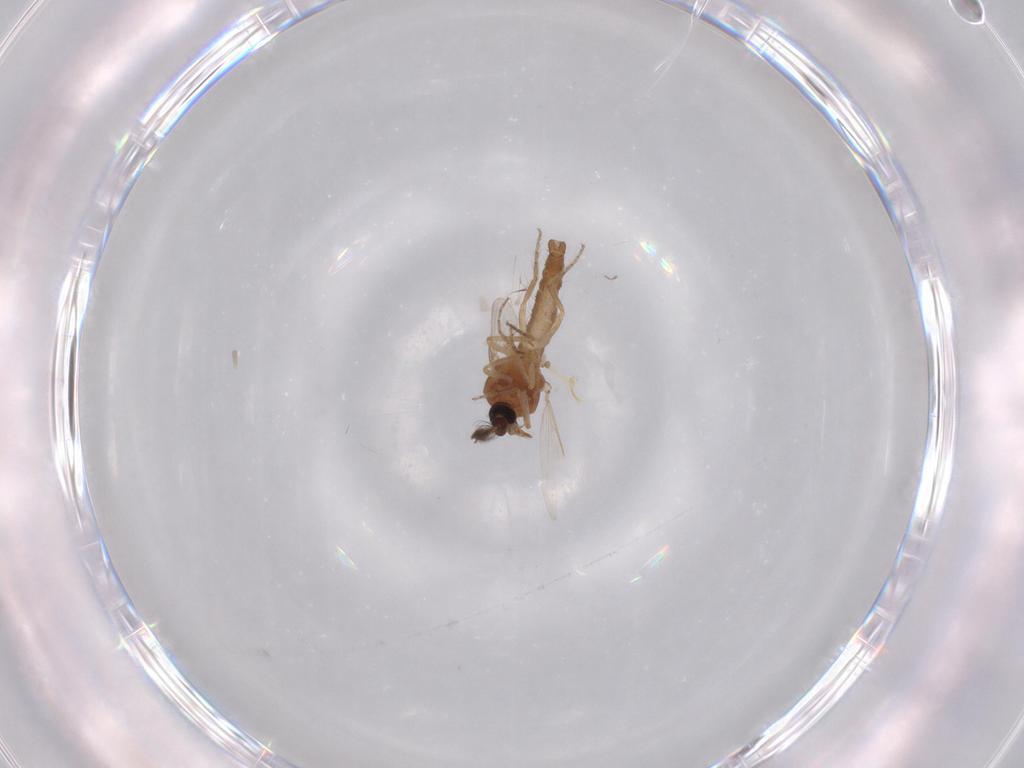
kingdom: Animalia
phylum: Arthropoda
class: Insecta
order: Diptera
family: Ceratopogonidae
